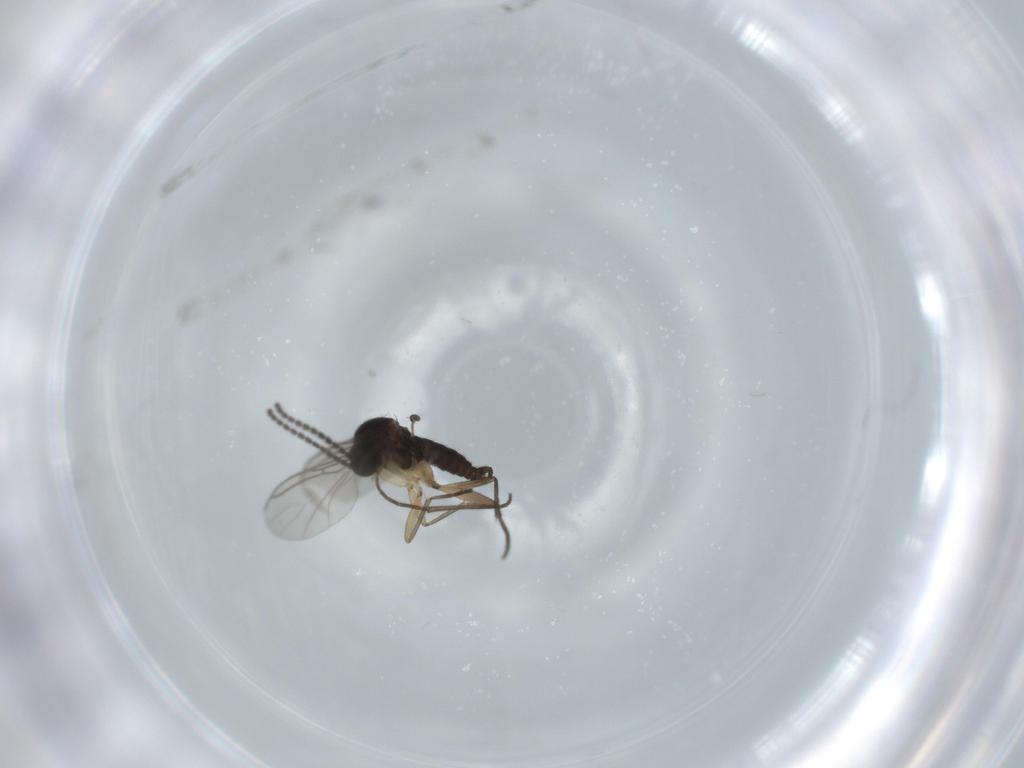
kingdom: Animalia
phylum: Arthropoda
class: Insecta
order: Diptera
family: Sciaridae
